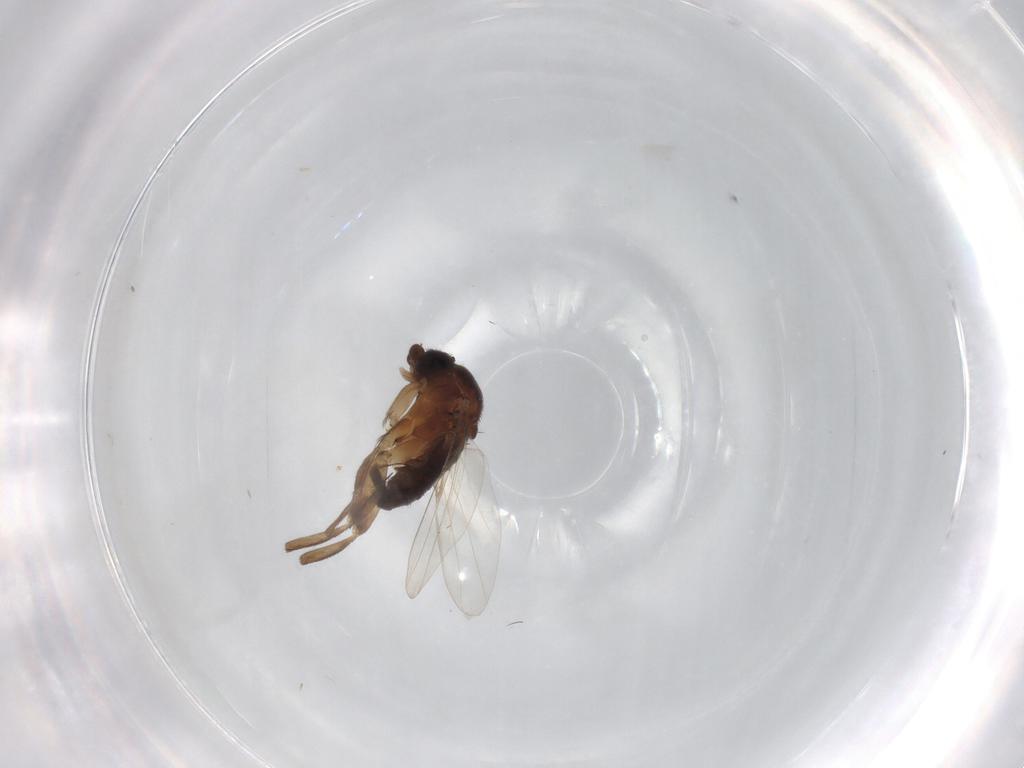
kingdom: Animalia
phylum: Arthropoda
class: Insecta
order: Diptera
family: Phoridae
